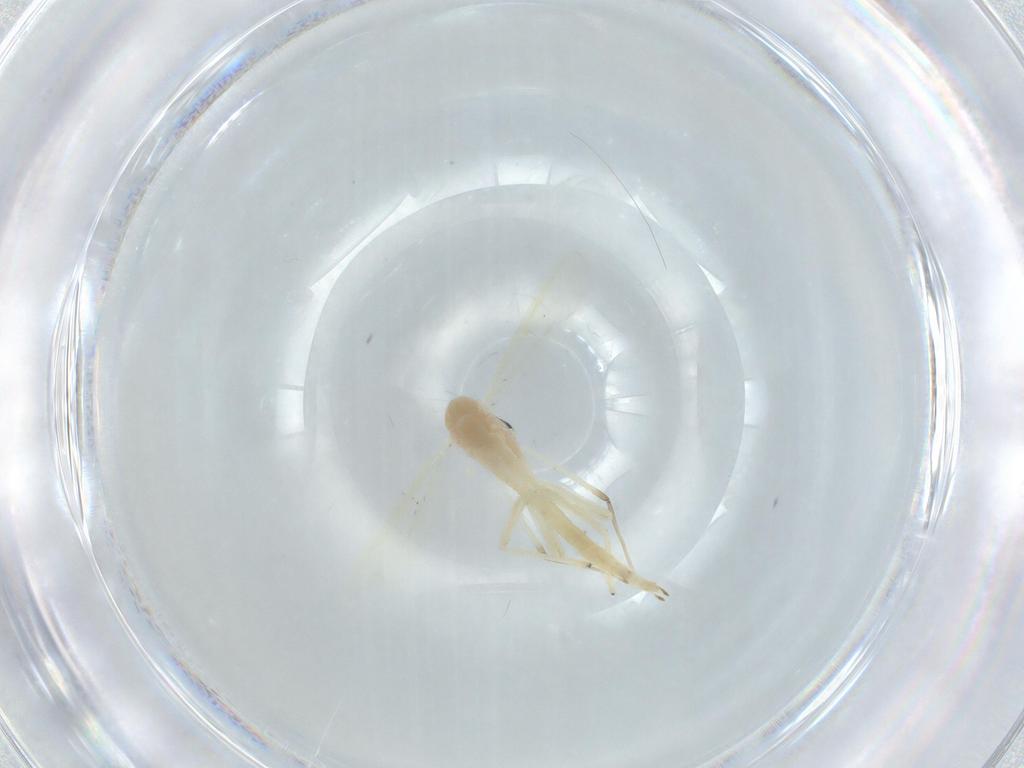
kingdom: Animalia
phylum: Arthropoda
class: Insecta
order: Diptera
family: Chironomidae
